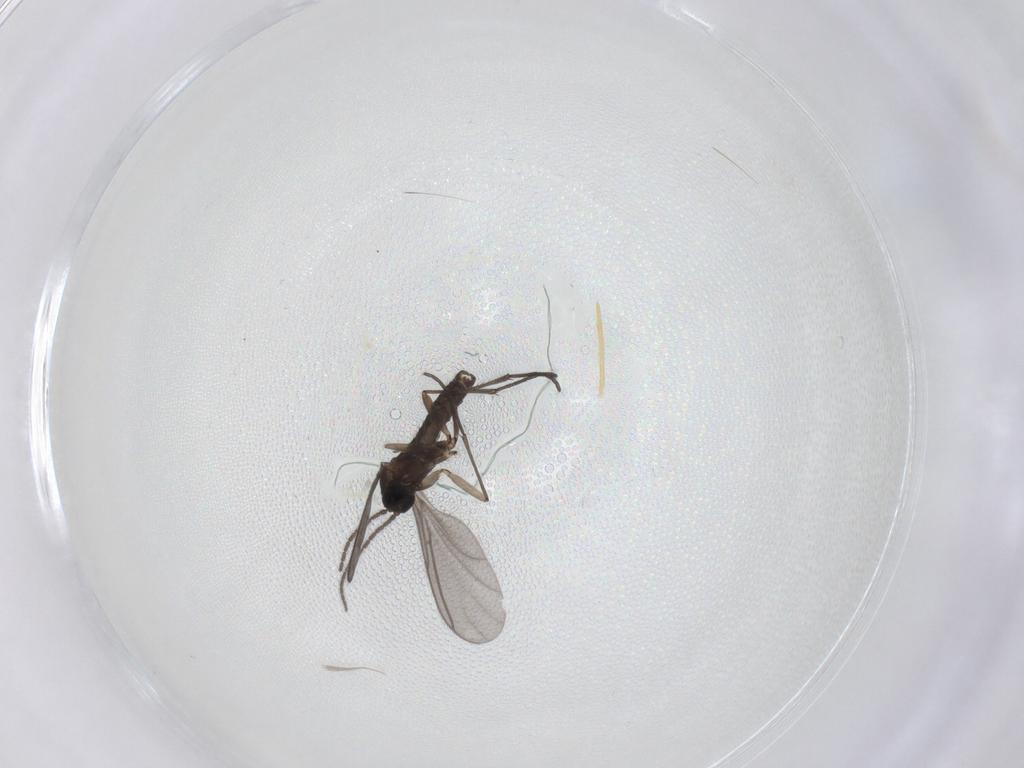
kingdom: Animalia
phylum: Arthropoda
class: Insecta
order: Diptera
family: Sciaridae
